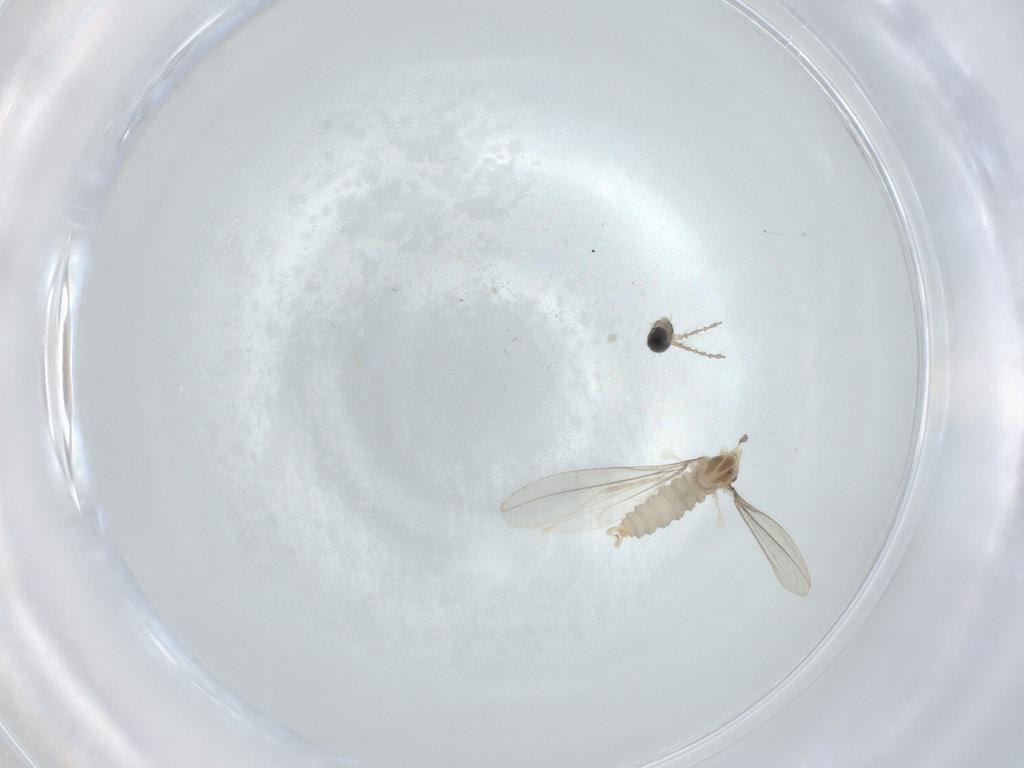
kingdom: Animalia
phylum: Arthropoda
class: Insecta
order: Diptera
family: Cecidomyiidae
